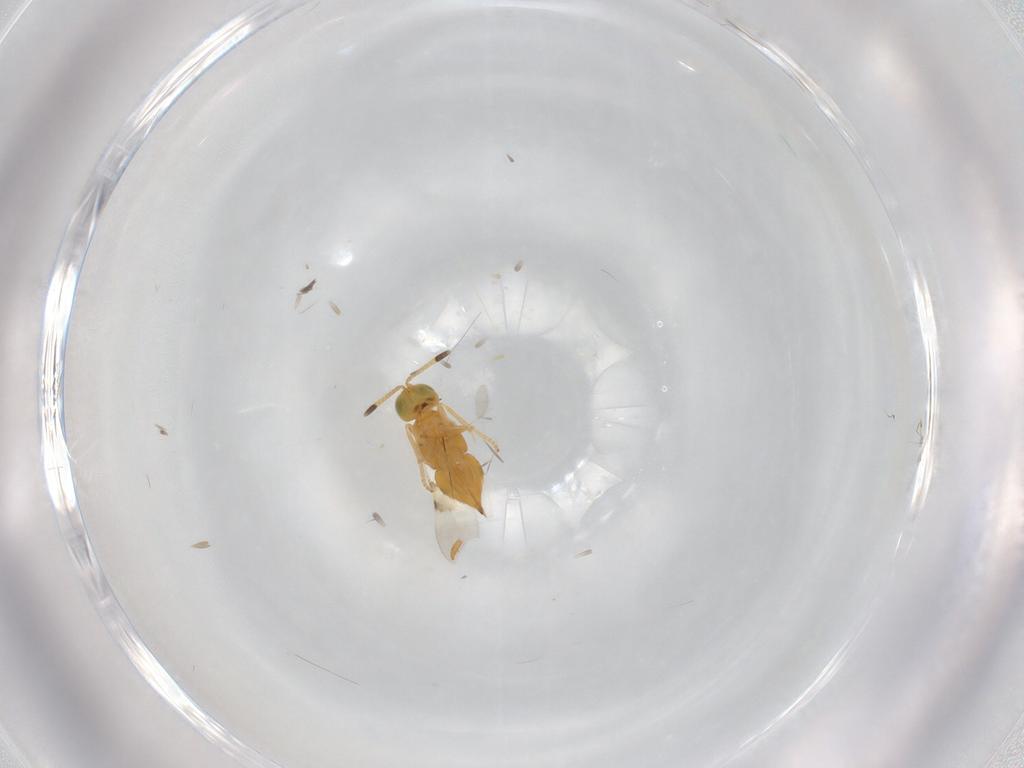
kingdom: Animalia
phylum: Arthropoda
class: Insecta
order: Hymenoptera
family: Formicidae
